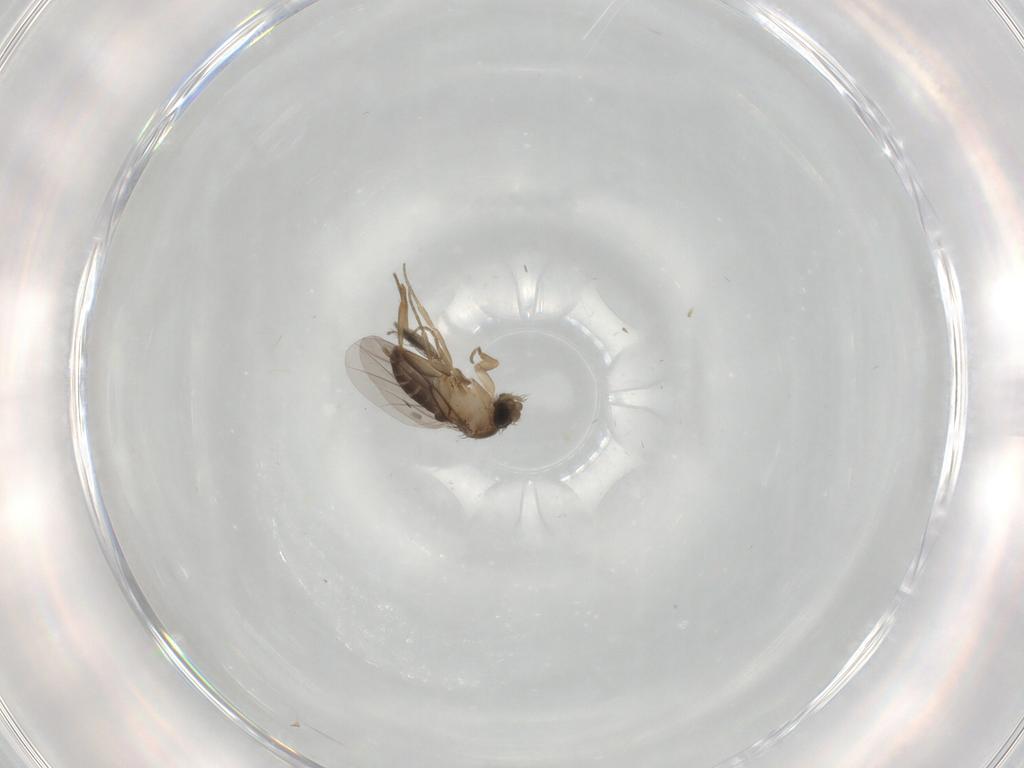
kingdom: Animalia
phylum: Arthropoda
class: Insecta
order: Diptera
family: Phoridae
